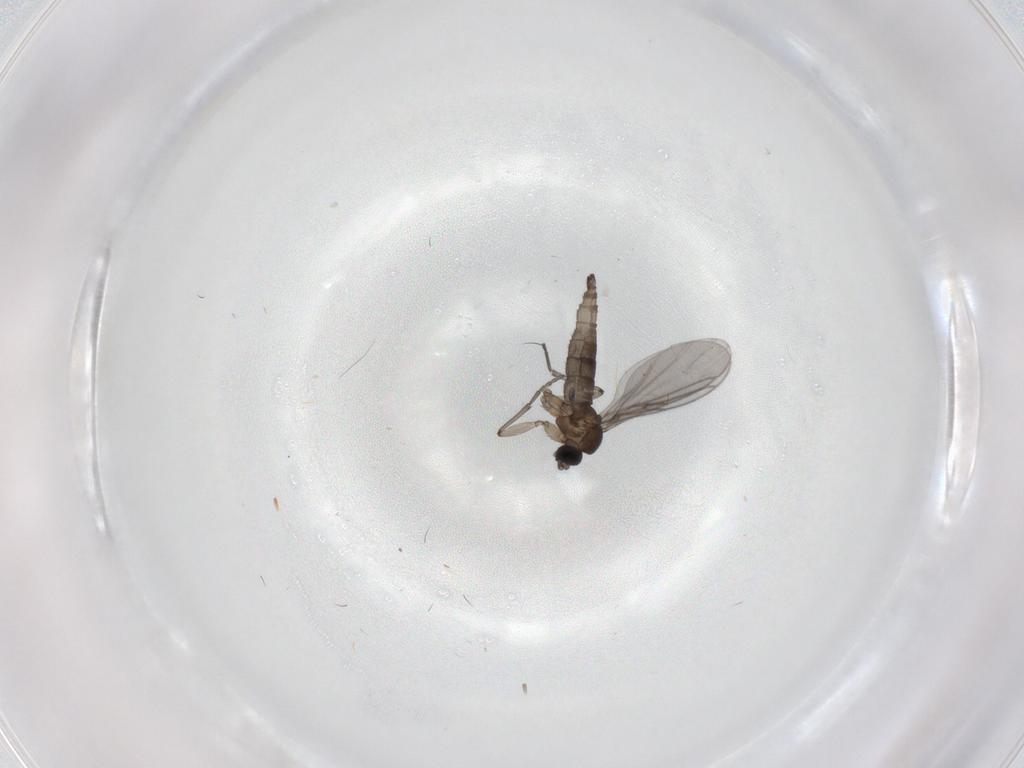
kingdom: Animalia
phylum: Arthropoda
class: Insecta
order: Diptera
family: Sciaridae
